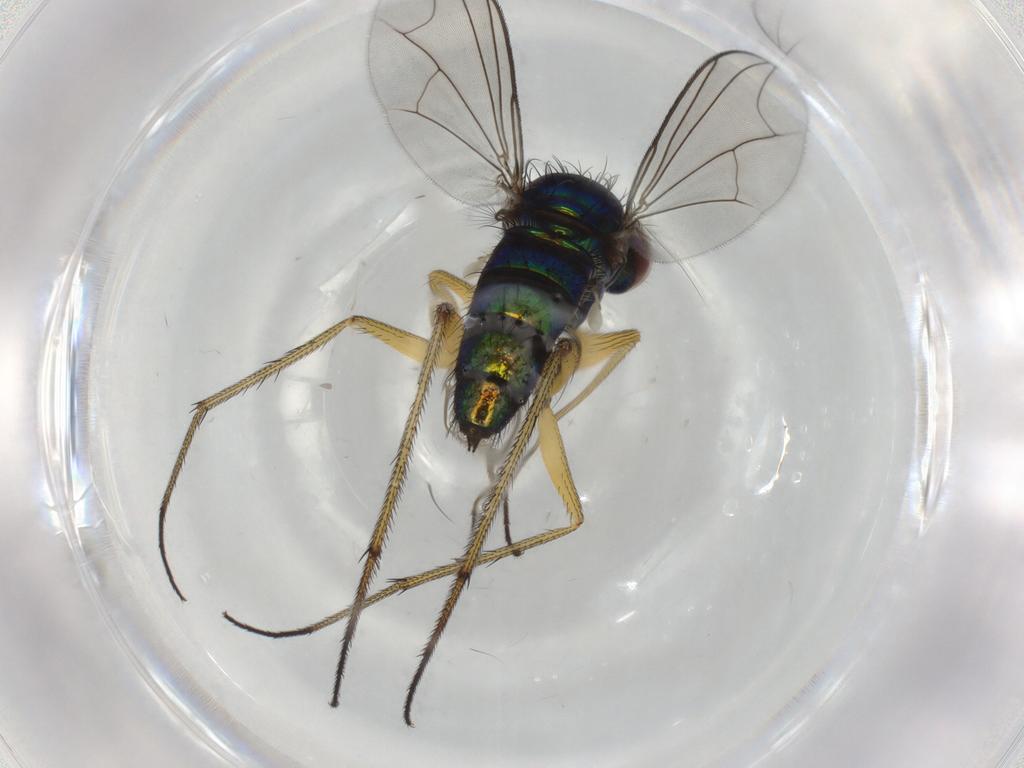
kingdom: Animalia
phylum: Arthropoda
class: Insecta
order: Diptera
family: Dolichopodidae
